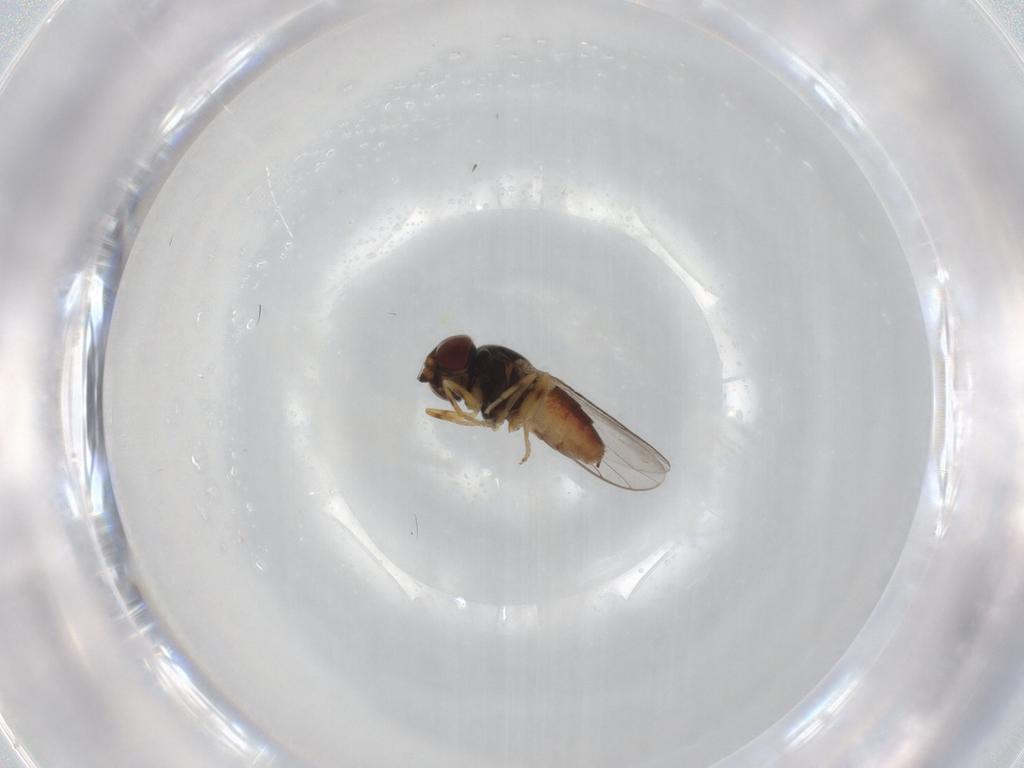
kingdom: Animalia
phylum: Arthropoda
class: Insecta
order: Diptera
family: Chloropidae
